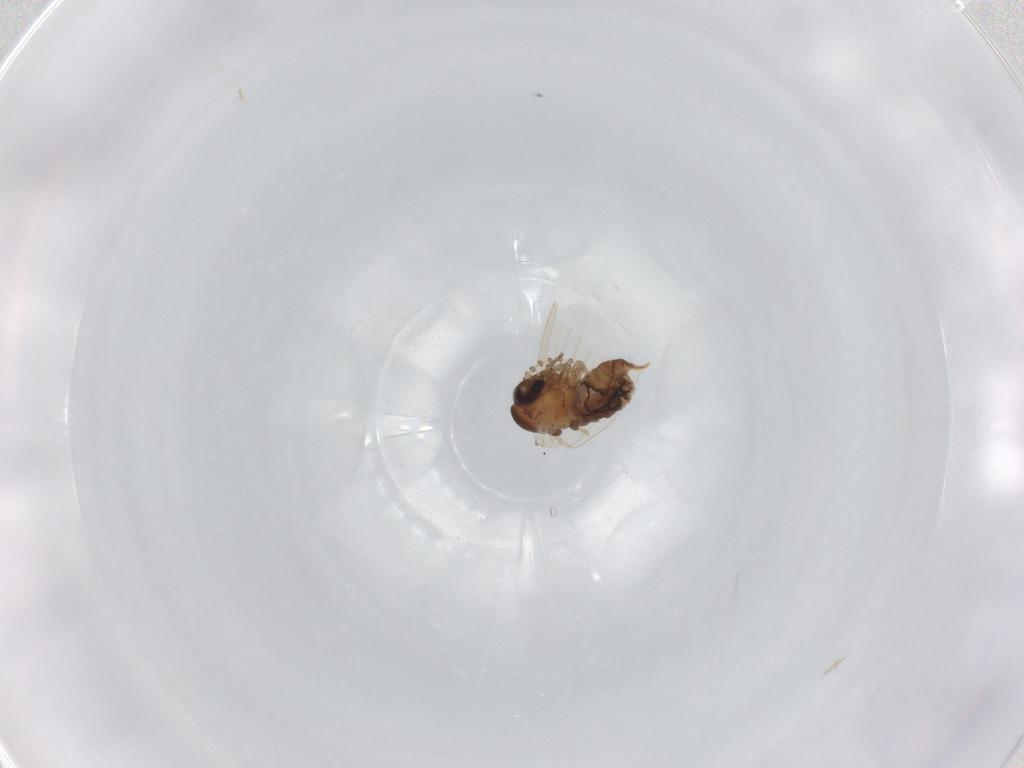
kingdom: Animalia
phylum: Arthropoda
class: Insecta
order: Diptera
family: Psychodidae
